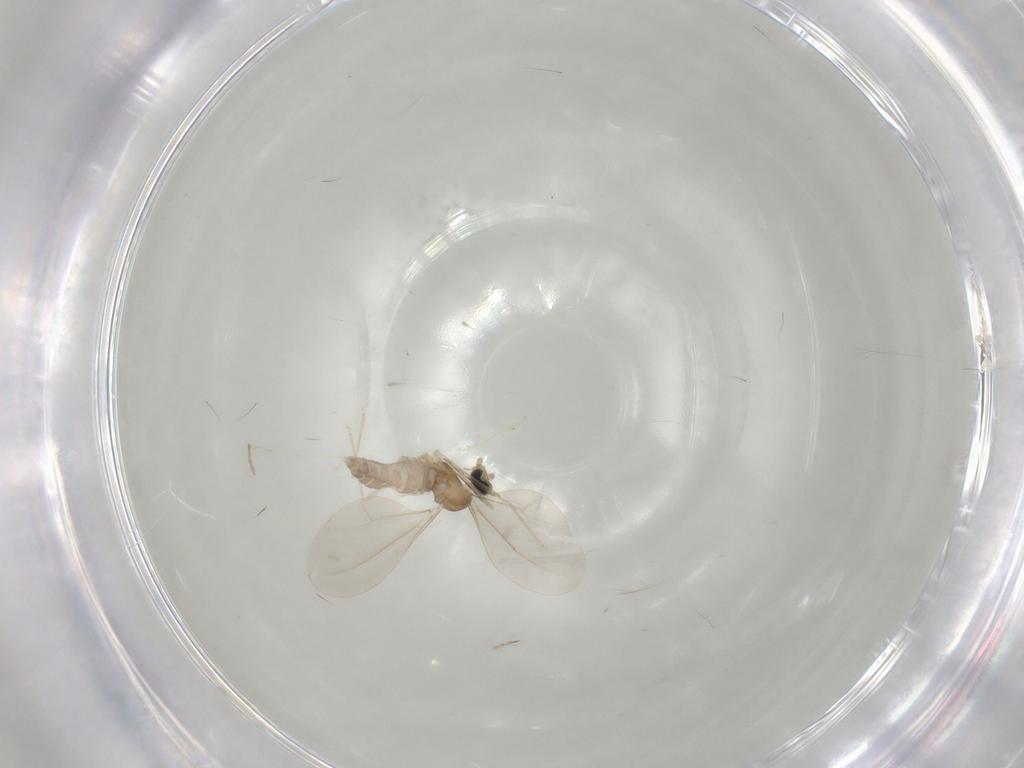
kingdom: Animalia
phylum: Arthropoda
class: Insecta
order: Diptera
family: Cecidomyiidae
